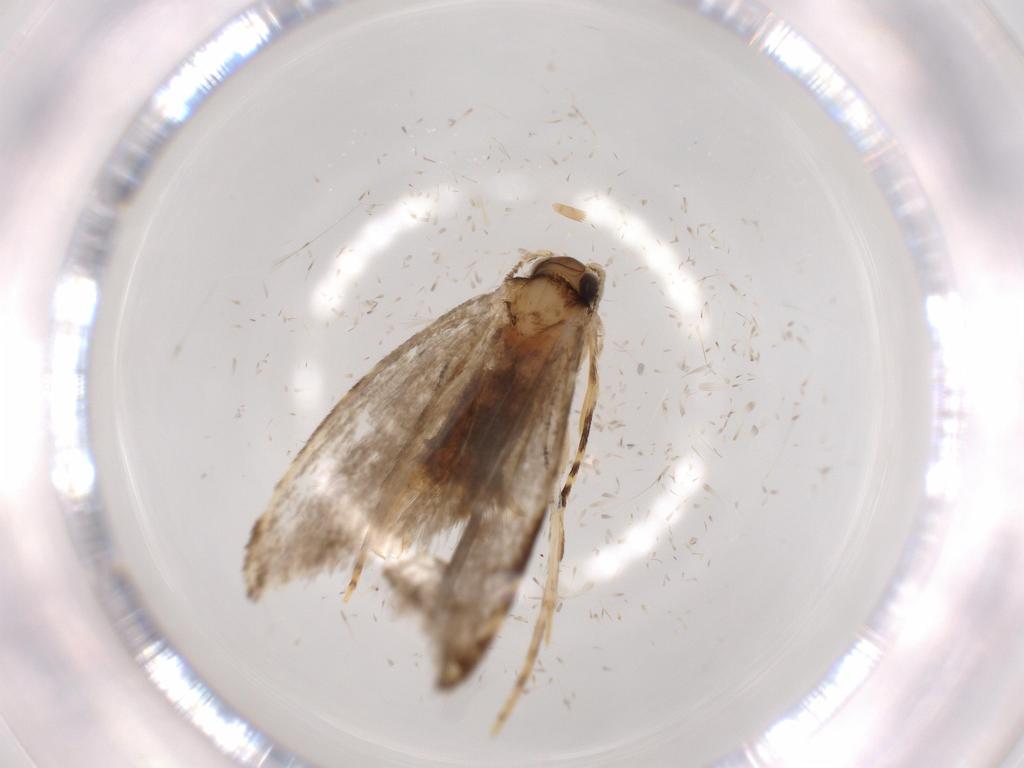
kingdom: Animalia
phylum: Arthropoda
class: Insecta
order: Lepidoptera
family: Tineidae
